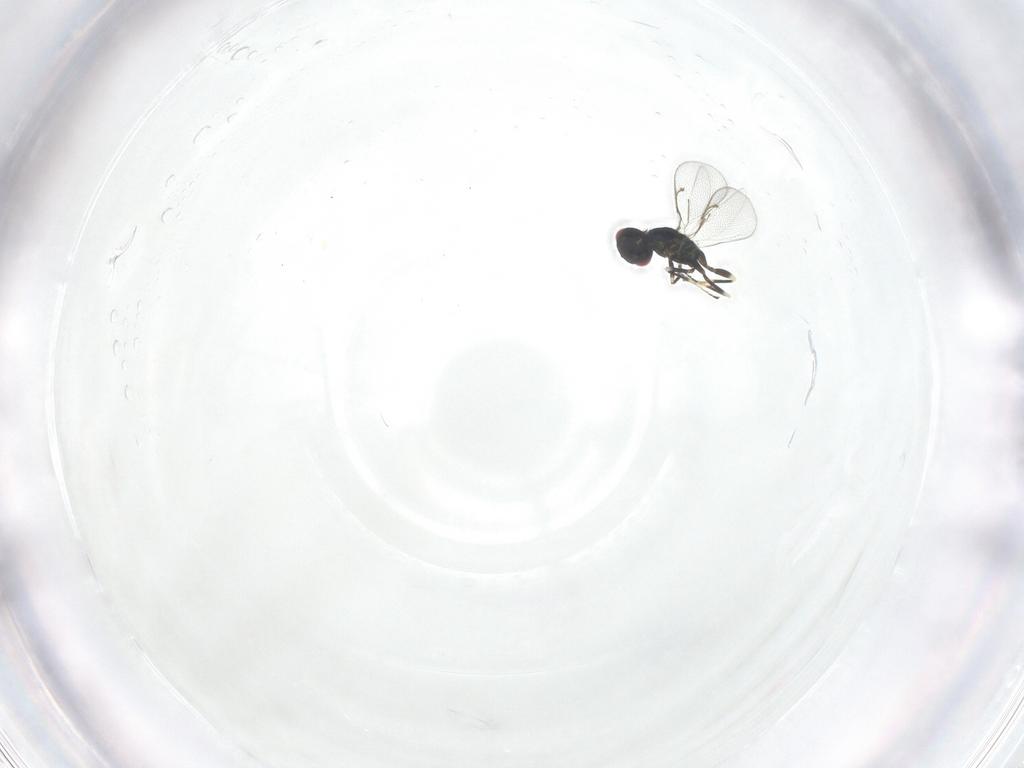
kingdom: Animalia
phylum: Arthropoda
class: Insecta
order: Hymenoptera
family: Eulophidae
